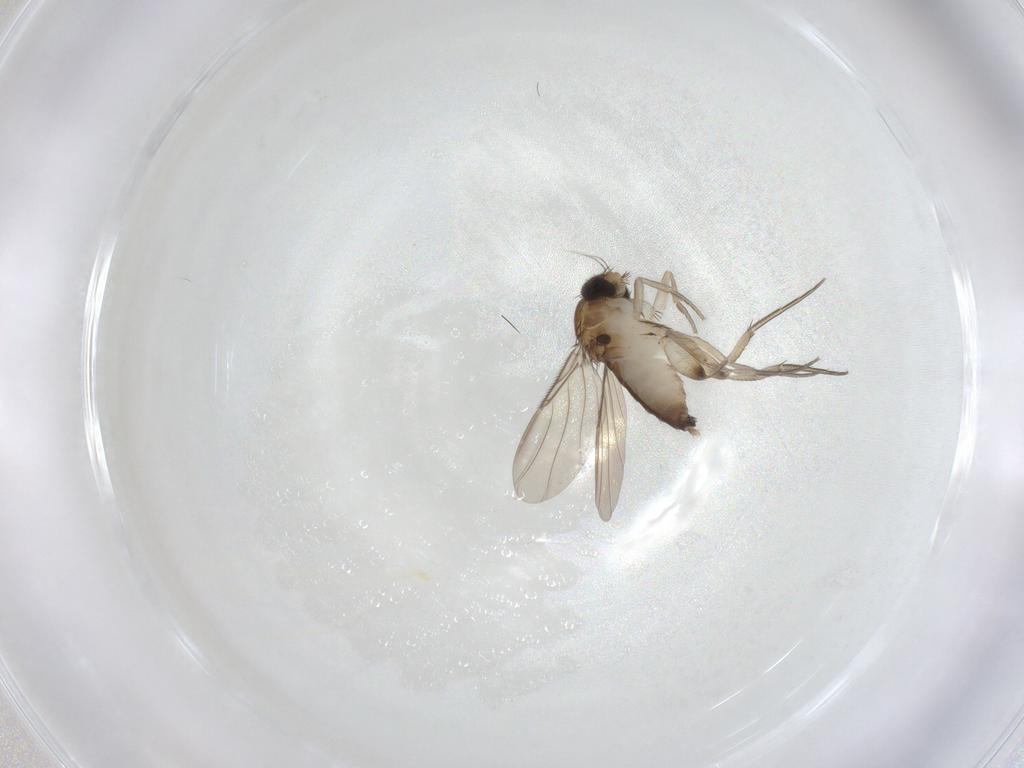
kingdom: Animalia
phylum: Arthropoda
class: Insecta
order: Diptera
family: Phoridae
